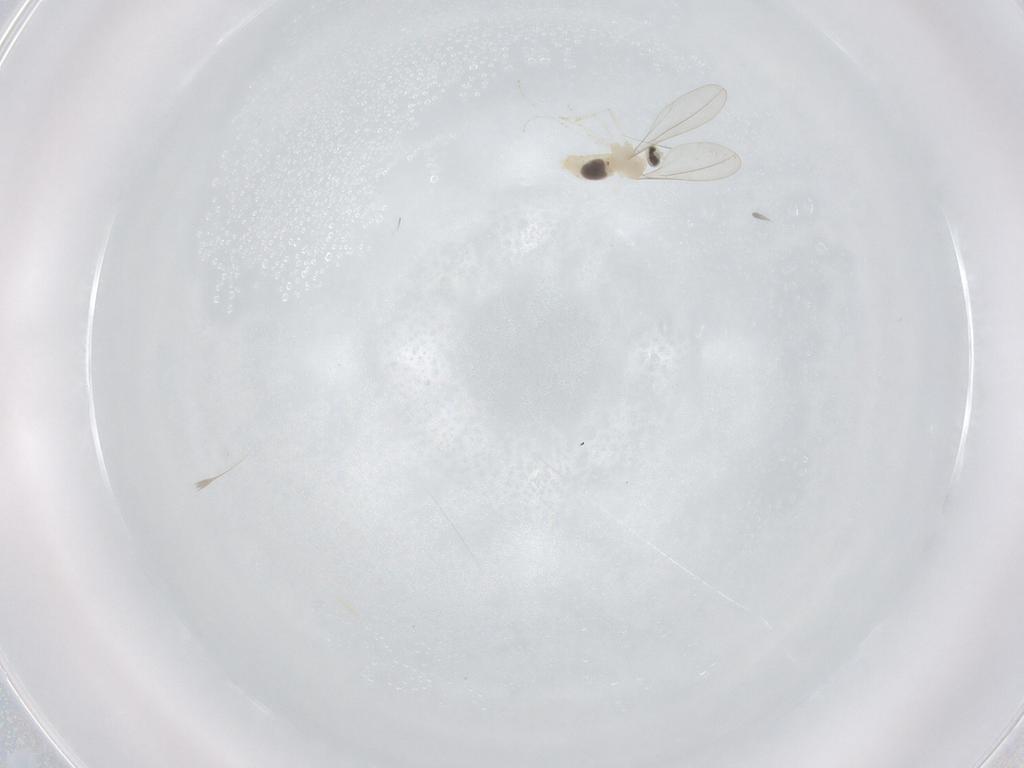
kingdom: Animalia
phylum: Arthropoda
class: Insecta
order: Diptera
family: Cecidomyiidae
